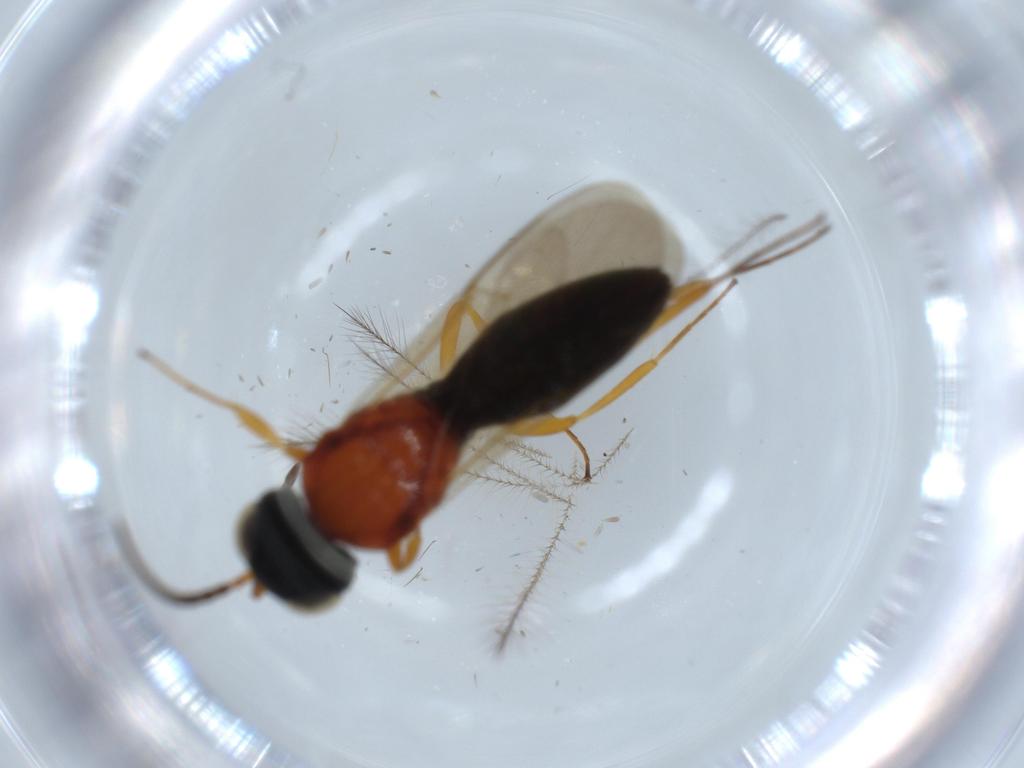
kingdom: Animalia
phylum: Arthropoda
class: Insecta
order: Hymenoptera
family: Scelionidae
